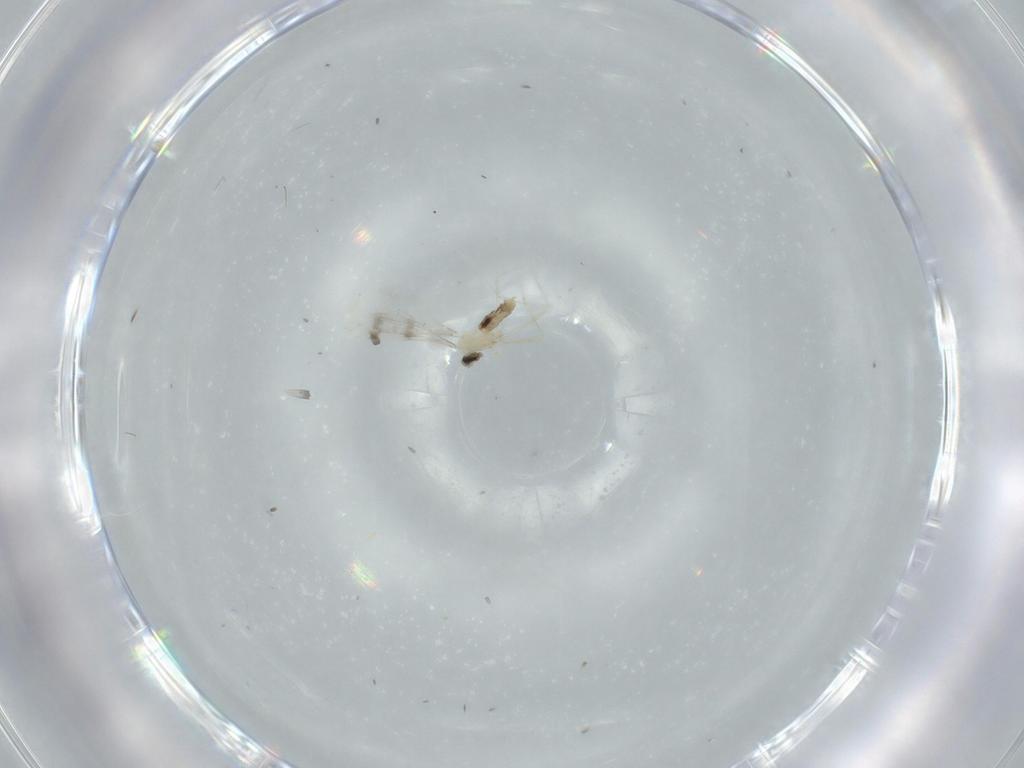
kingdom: Animalia
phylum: Arthropoda
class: Insecta
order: Diptera
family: Cecidomyiidae
